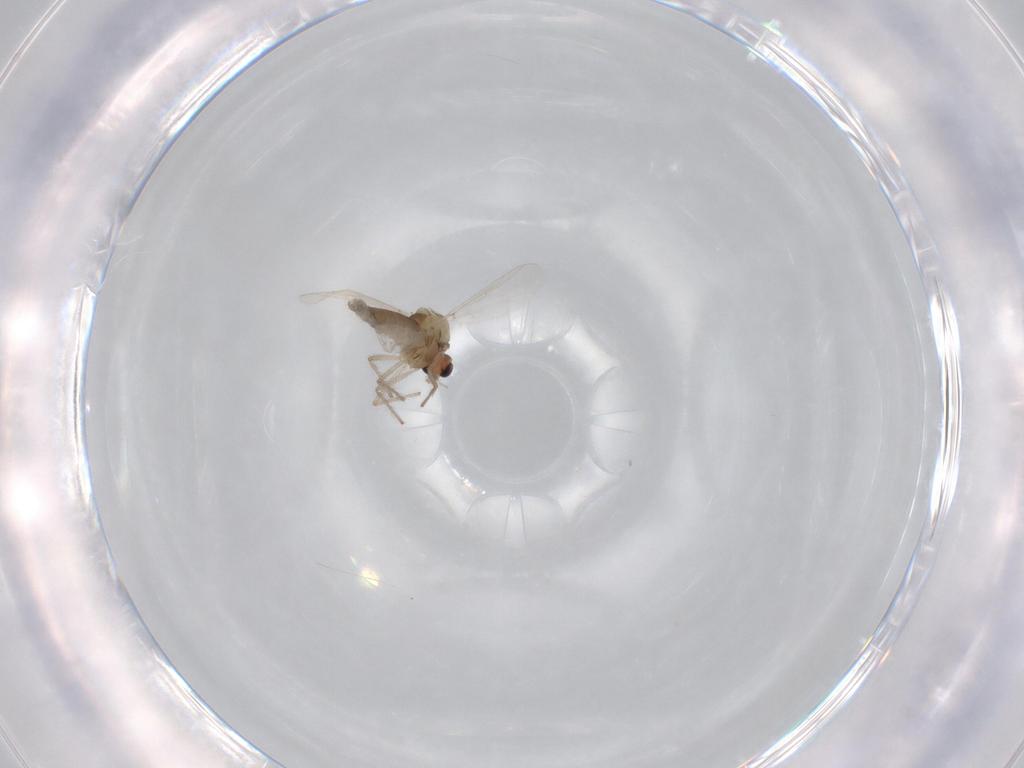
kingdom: Animalia
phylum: Arthropoda
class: Insecta
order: Diptera
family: Chironomidae
